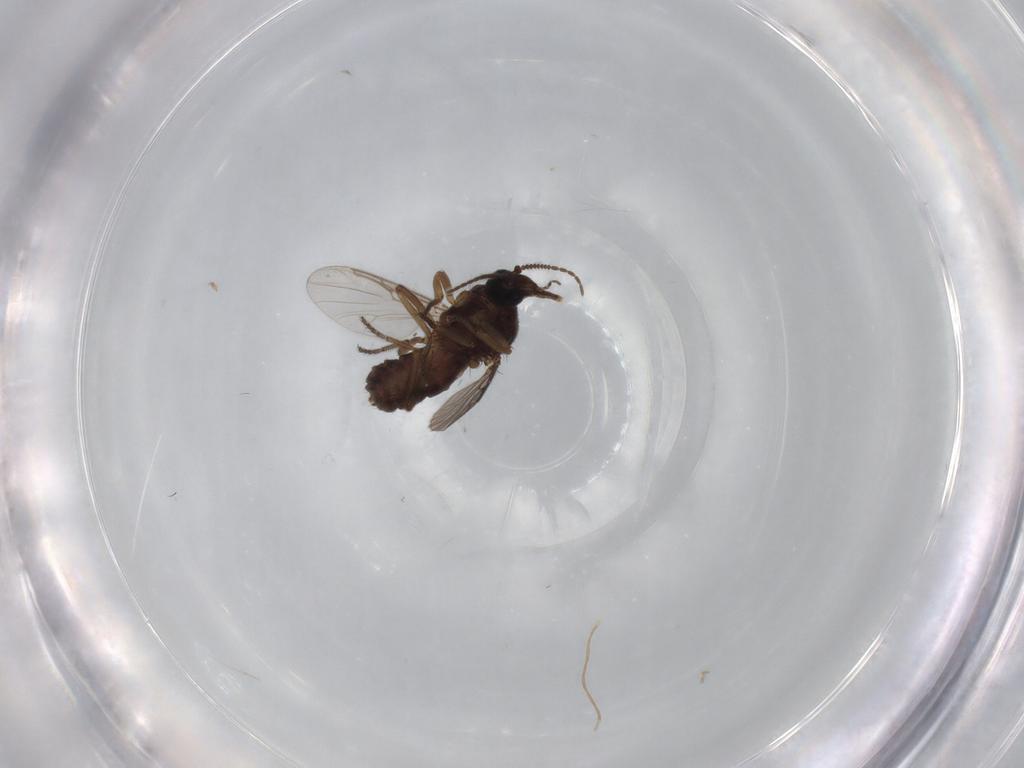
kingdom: Animalia
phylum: Arthropoda
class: Insecta
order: Diptera
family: Ceratopogonidae
